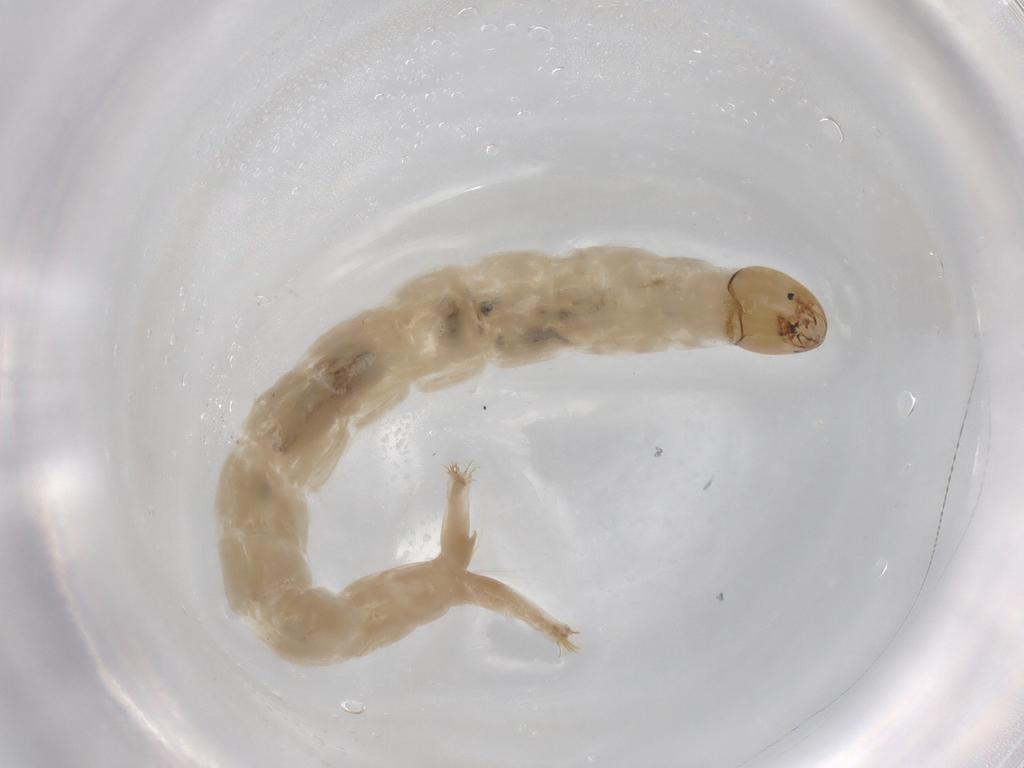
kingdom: Animalia
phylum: Arthropoda
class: Insecta
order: Diptera
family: Chironomidae
